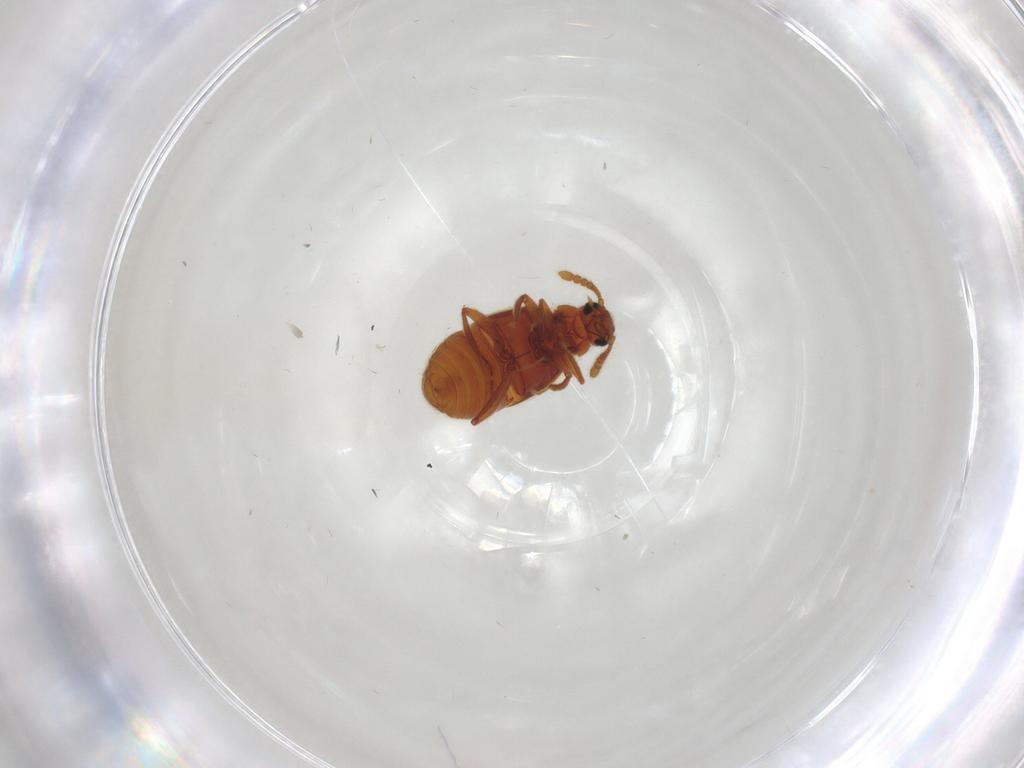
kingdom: Animalia
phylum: Arthropoda
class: Insecta
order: Coleoptera
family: Staphylinidae
